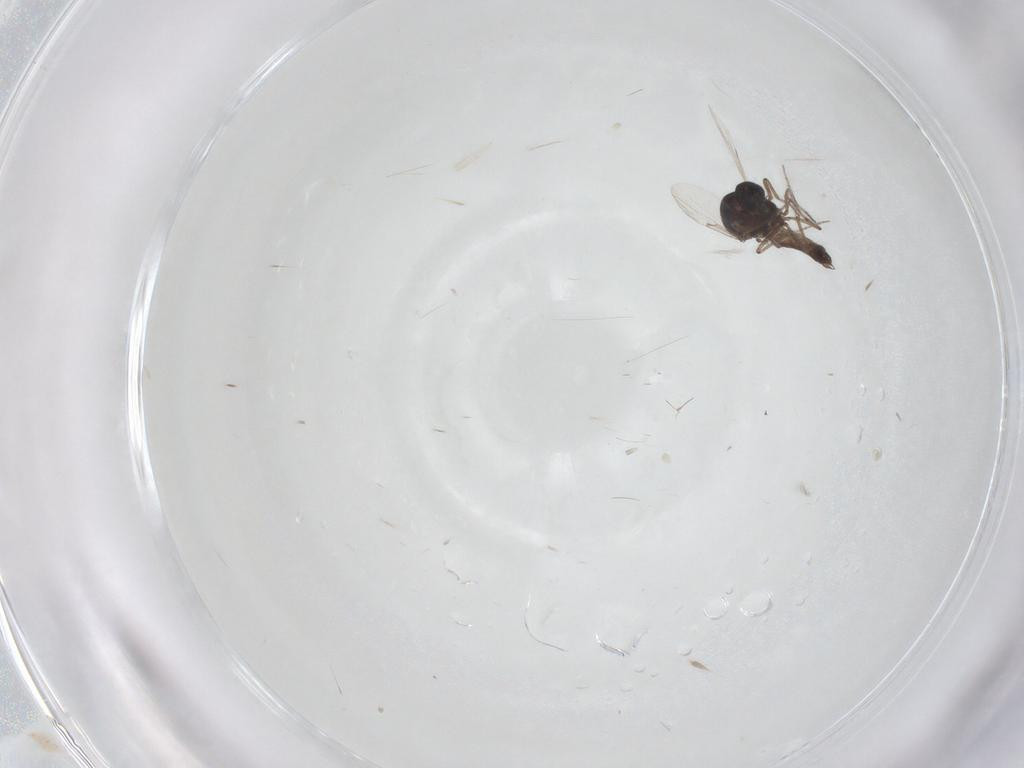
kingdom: Animalia
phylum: Arthropoda
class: Insecta
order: Diptera
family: Ceratopogonidae
